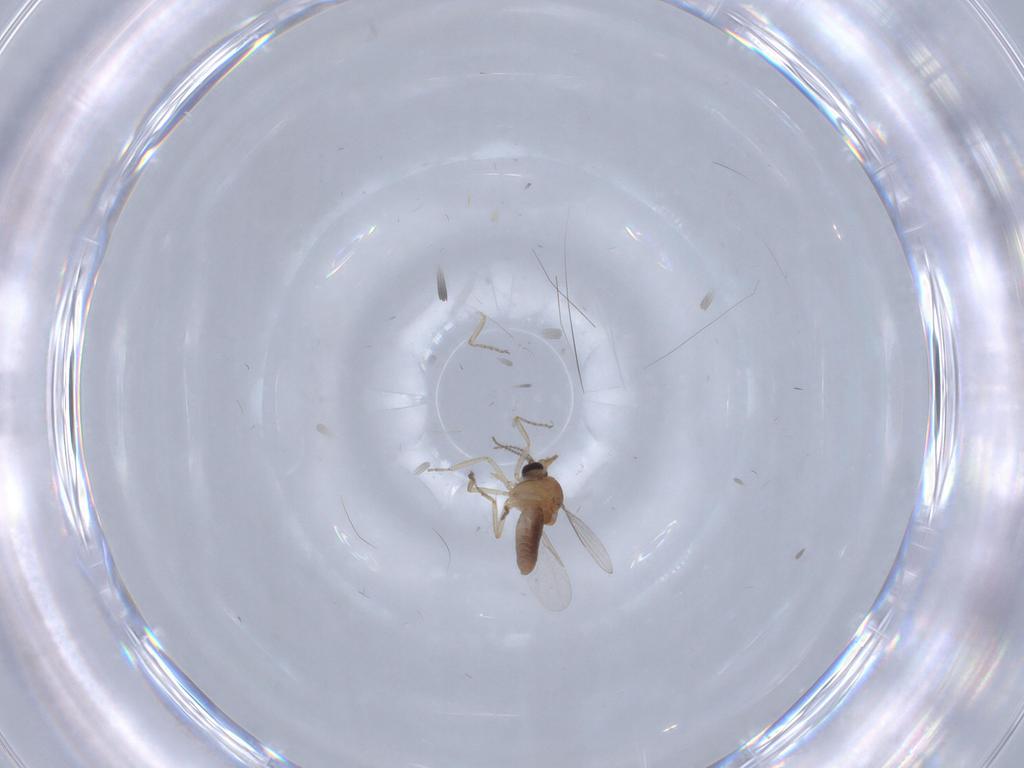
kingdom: Animalia
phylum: Arthropoda
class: Insecta
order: Diptera
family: Ceratopogonidae
